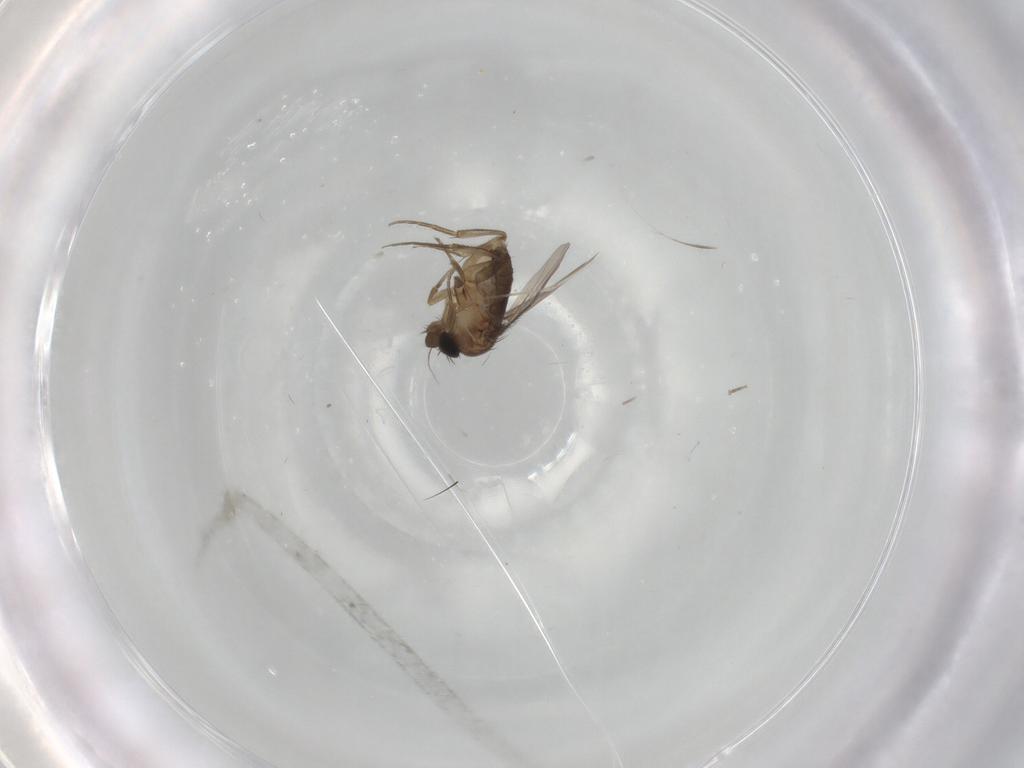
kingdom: Animalia
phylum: Arthropoda
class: Insecta
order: Diptera
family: Phoridae
